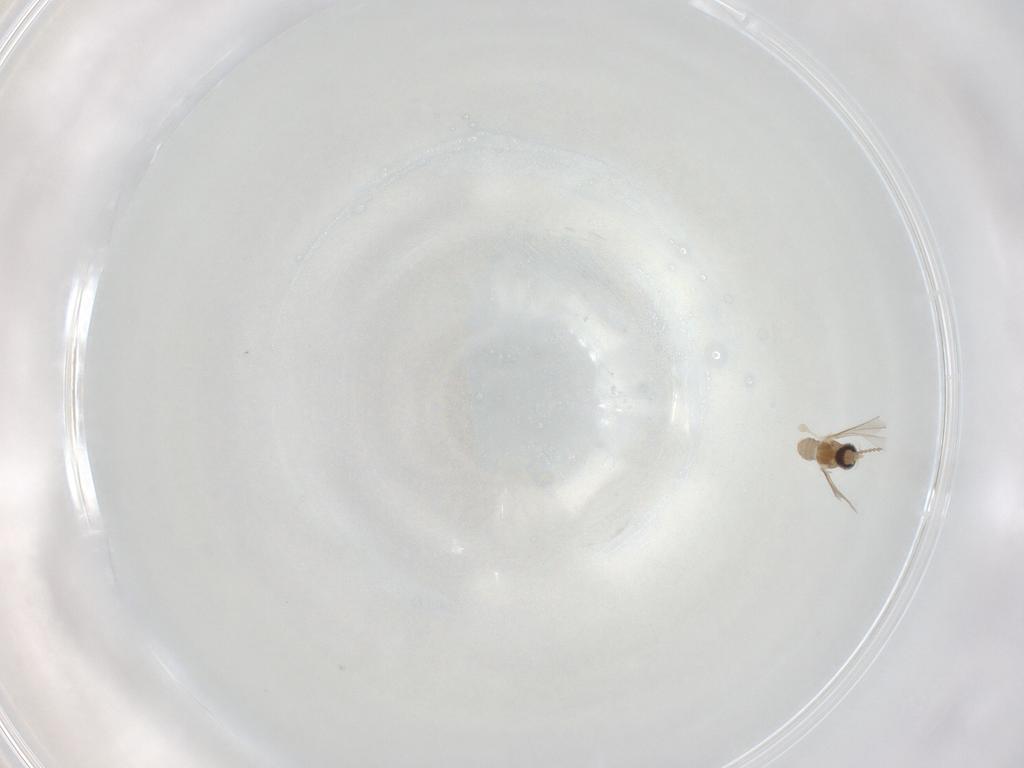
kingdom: Animalia
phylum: Arthropoda
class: Insecta
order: Diptera
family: Cecidomyiidae
